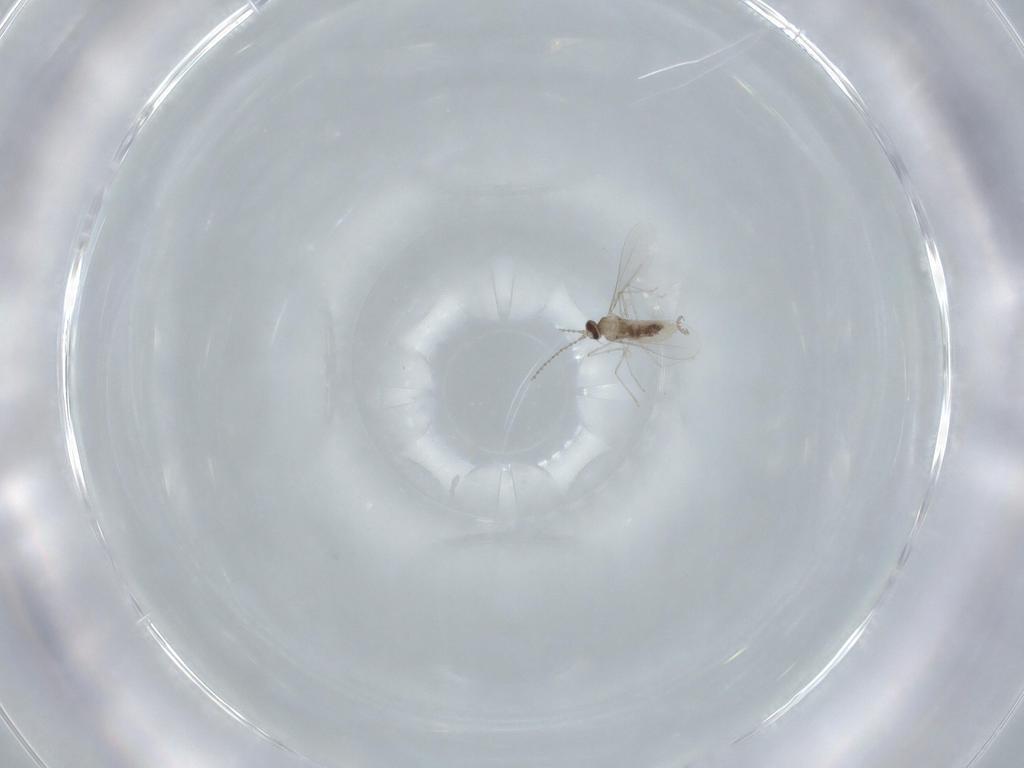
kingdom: Animalia
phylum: Arthropoda
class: Insecta
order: Diptera
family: Cecidomyiidae
